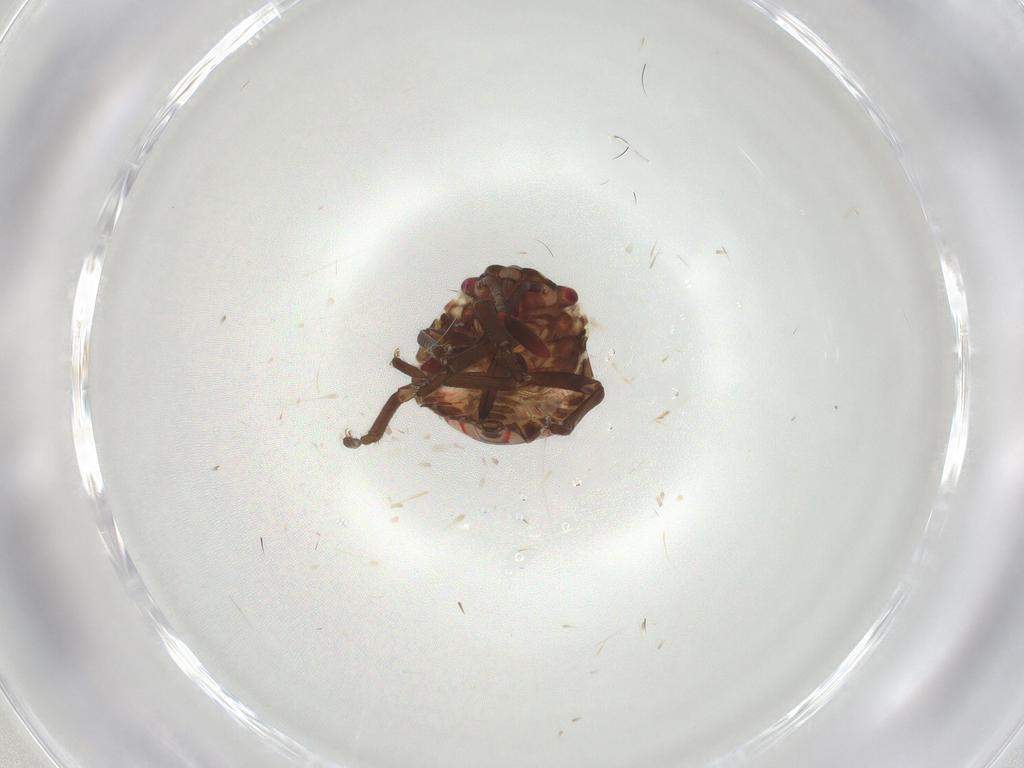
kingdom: Animalia
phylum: Arthropoda
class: Insecta
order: Hemiptera
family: Pentatomidae
